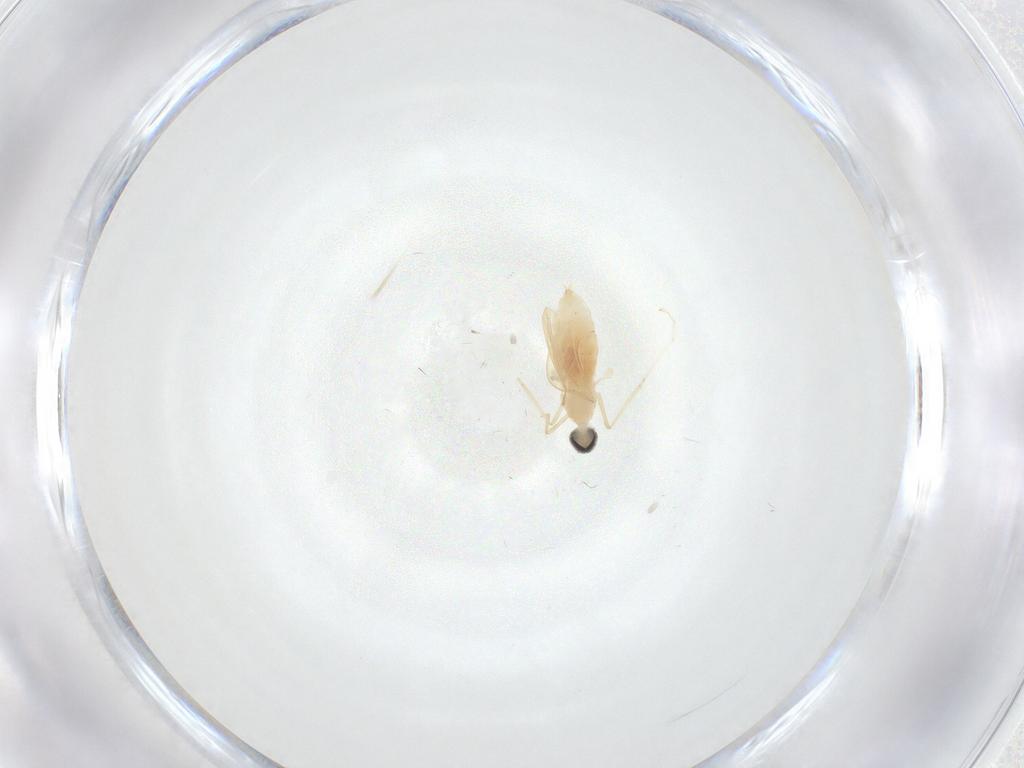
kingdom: Animalia
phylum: Arthropoda
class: Insecta
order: Diptera
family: Cecidomyiidae
